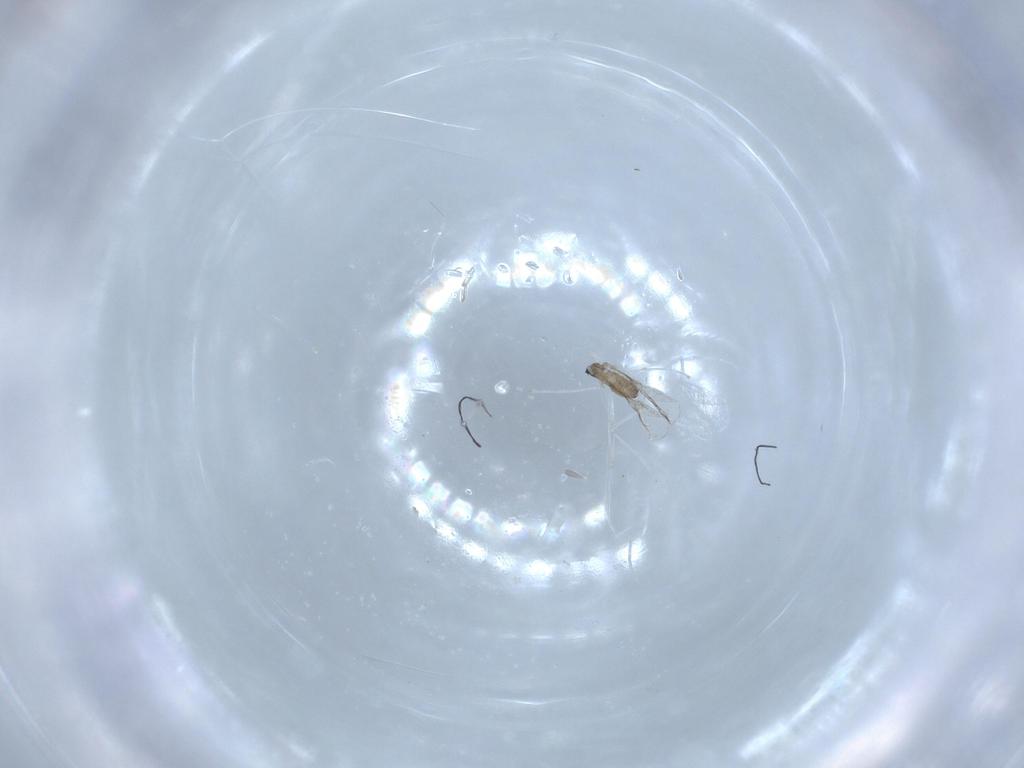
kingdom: Animalia
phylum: Arthropoda
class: Insecta
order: Diptera
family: Cecidomyiidae
